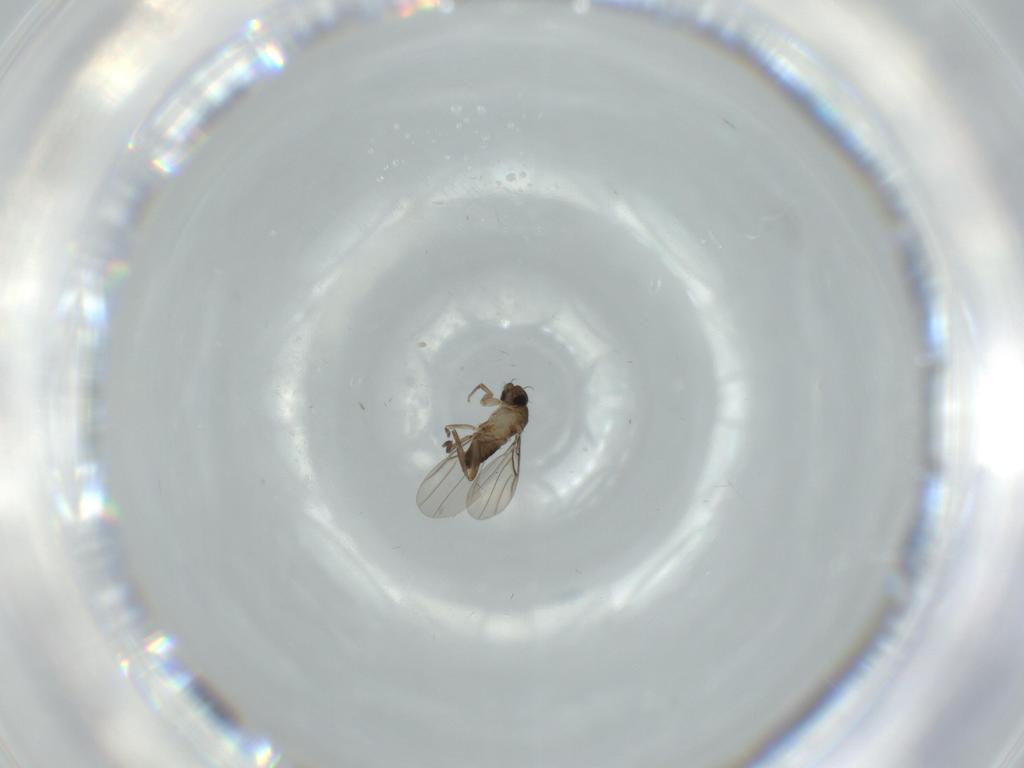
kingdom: Animalia
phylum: Arthropoda
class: Insecta
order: Diptera
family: Phoridae
